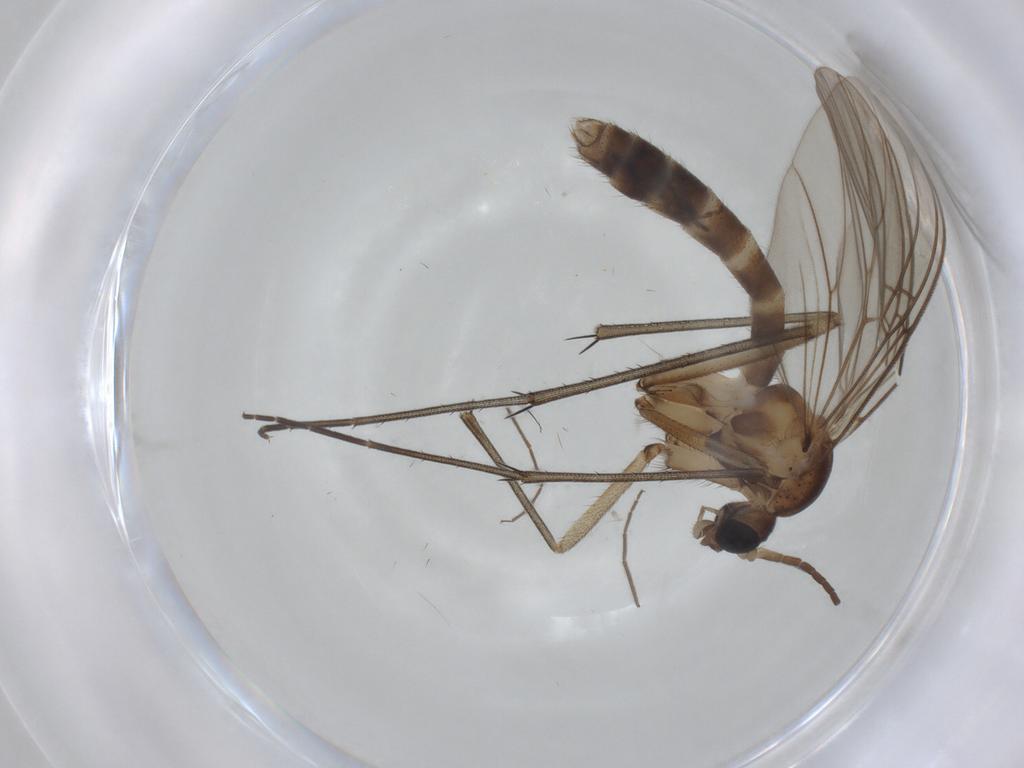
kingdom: Animalia
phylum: Arthropoda
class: Insecta
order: Diptera
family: Chironomidae
